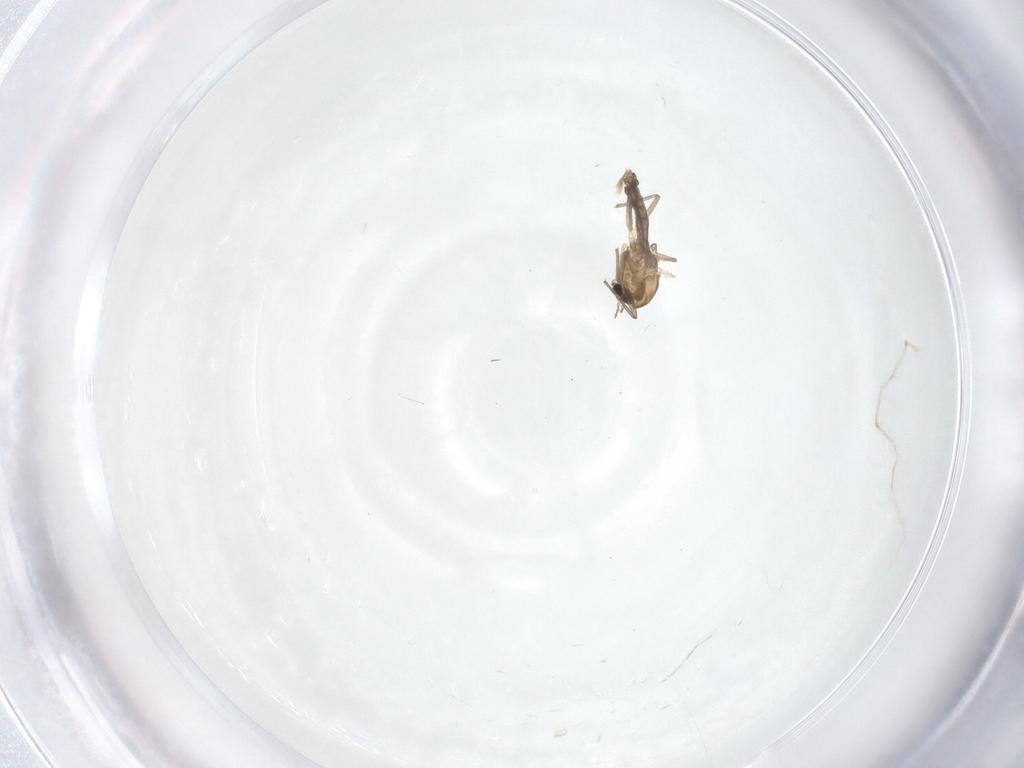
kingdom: Animalia
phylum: Arthropoda
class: Insecta
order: Diptera
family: Chironomidae
